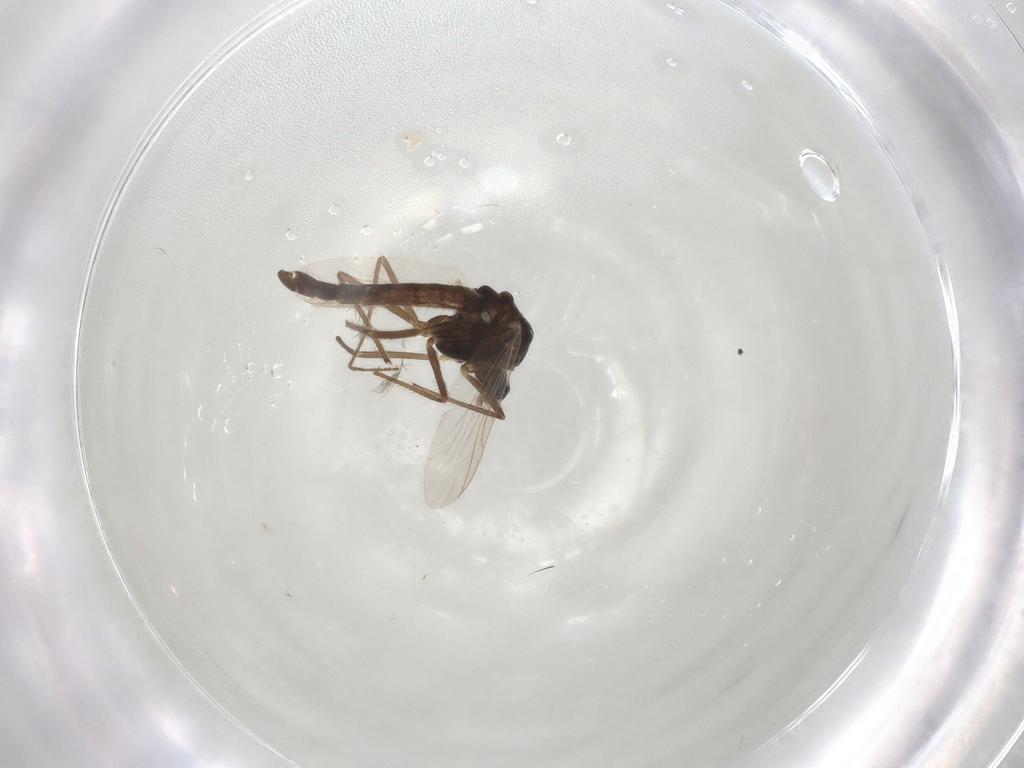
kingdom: Animalia
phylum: Arthropoda
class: Insecta
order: Diptera
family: Chironomidae
